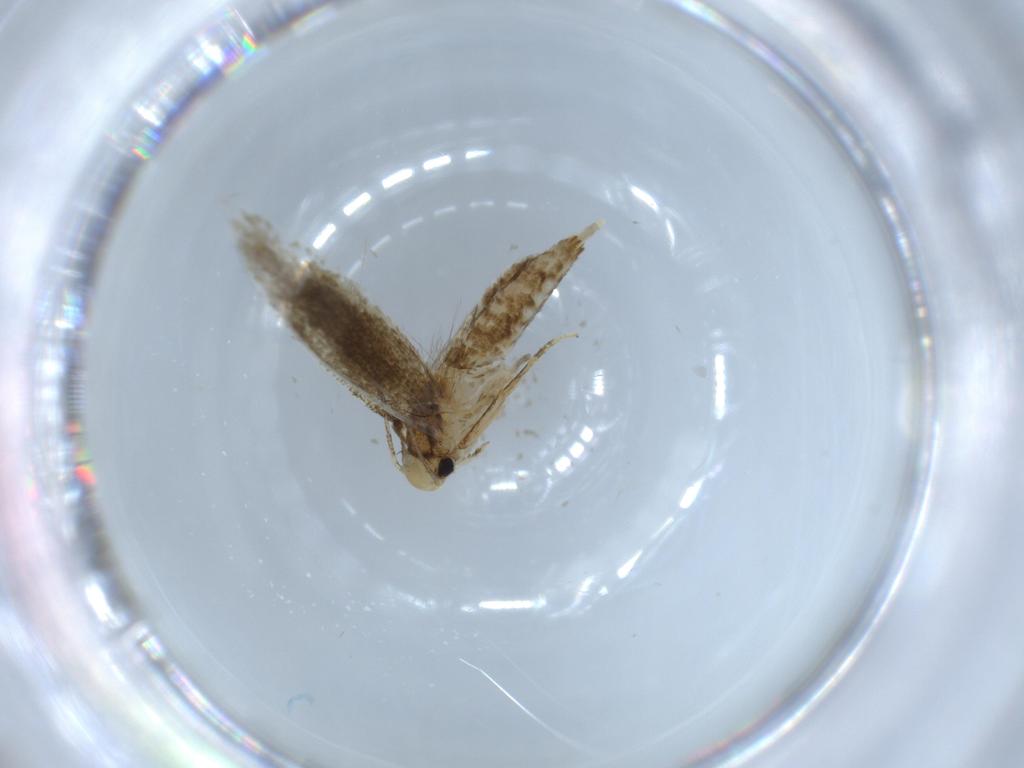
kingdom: Animalia
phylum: Arthropoda
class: Insecta
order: Lepidoptera
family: Tineidae
